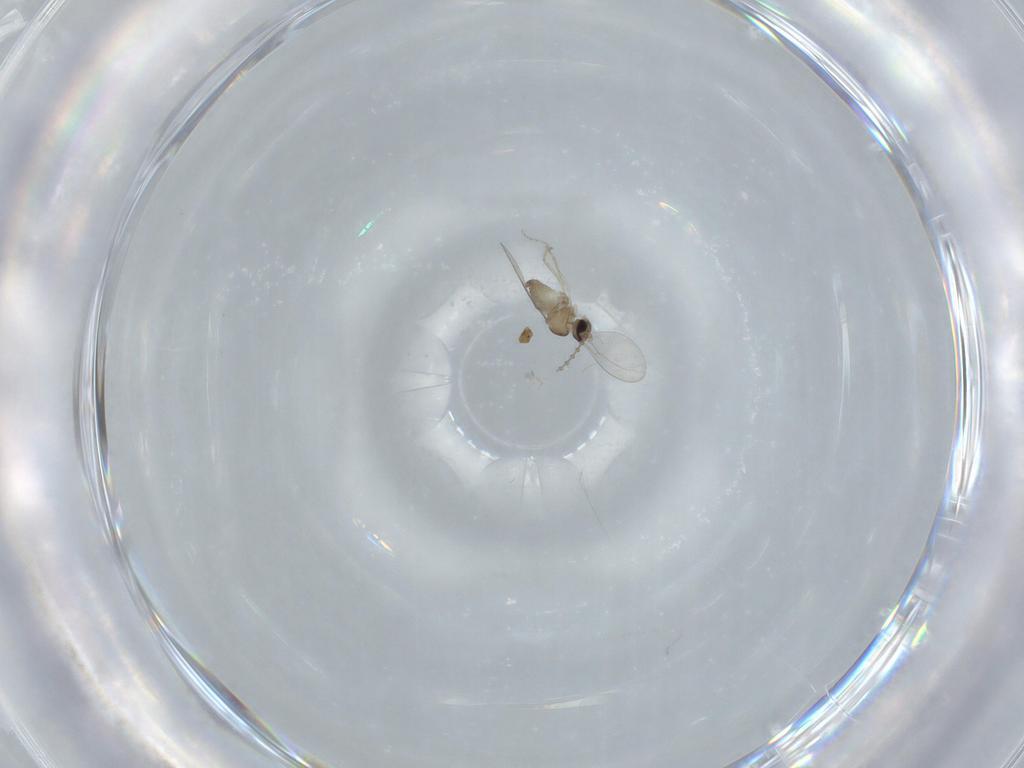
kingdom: Animalia
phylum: Arthropoda
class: Insecta
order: Diptera
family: Cecidomyiidae
